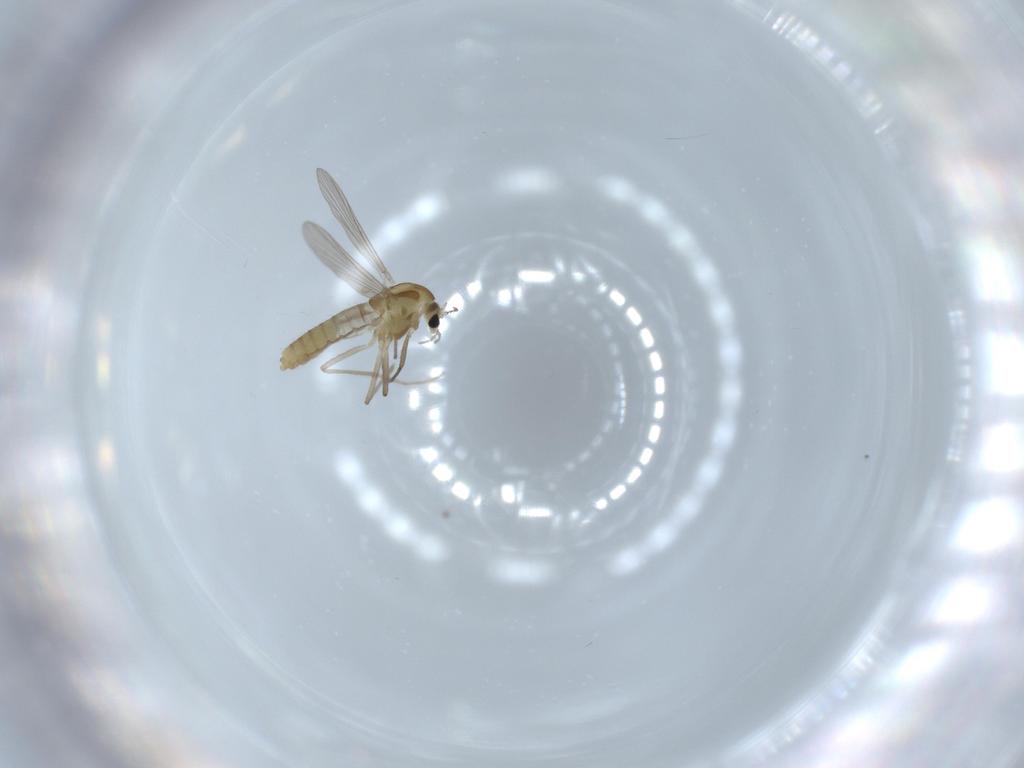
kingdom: Animalia
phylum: Arthropoda
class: Insecta
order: Diptera
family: Chironomidae
